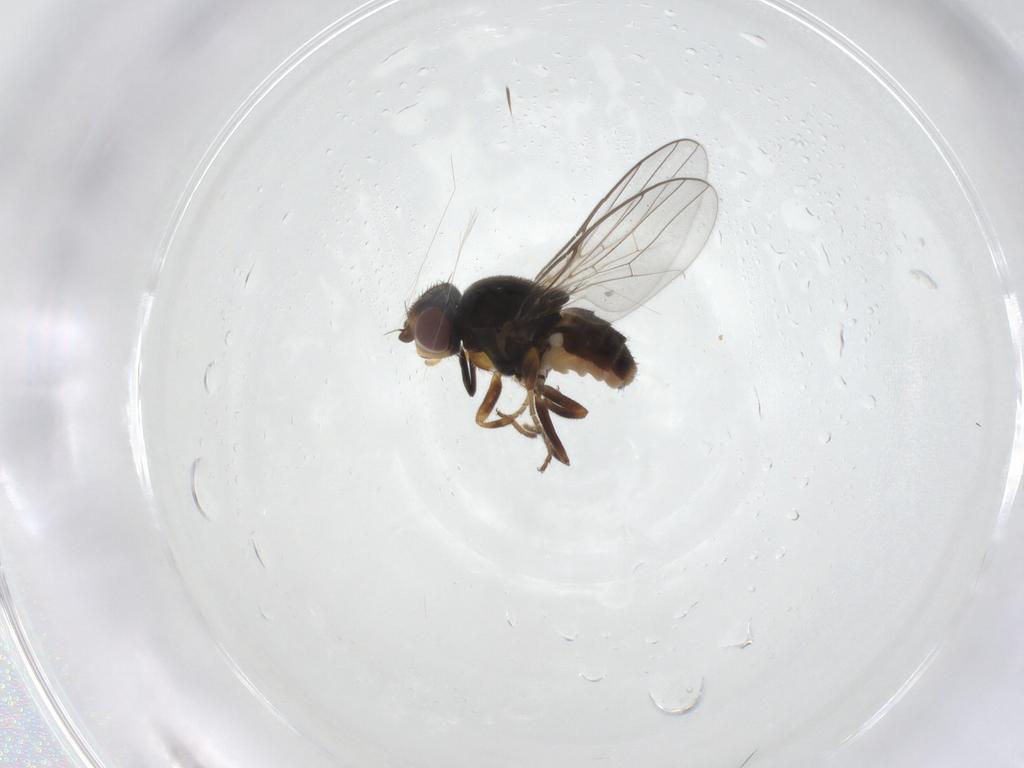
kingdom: Animalia
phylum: Arthropoda
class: Insecta
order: Diptera
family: Chloropidae
